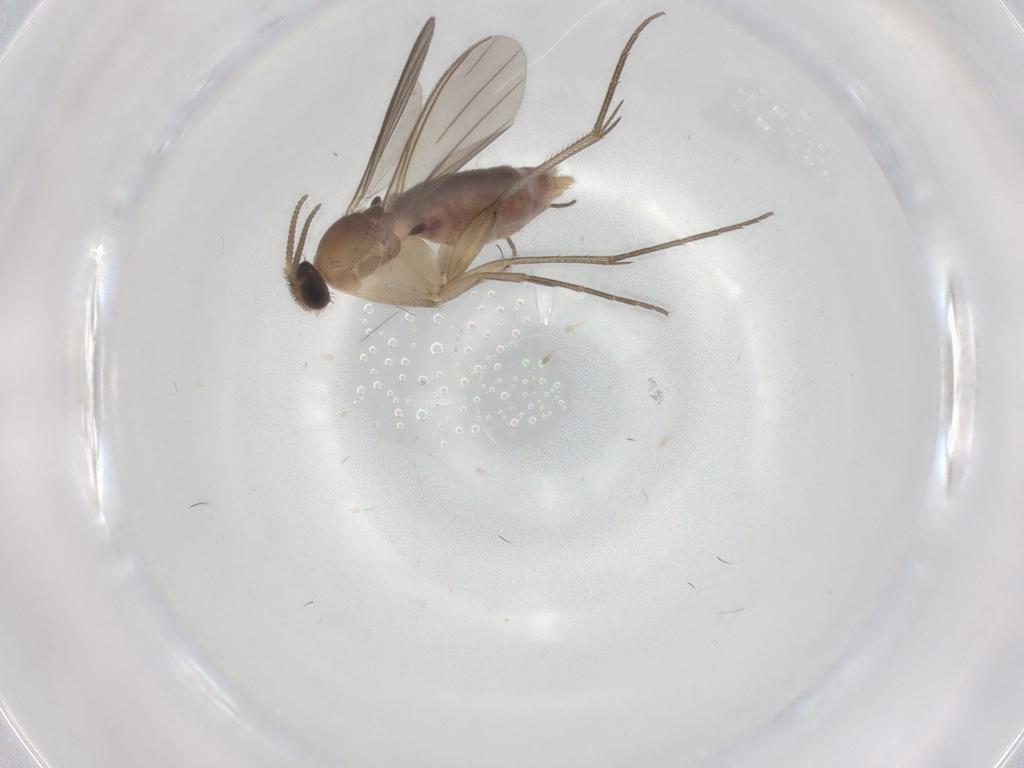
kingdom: Animalia
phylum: Arthropoda
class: Insecta
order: Diptera
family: Mycetophilidae
